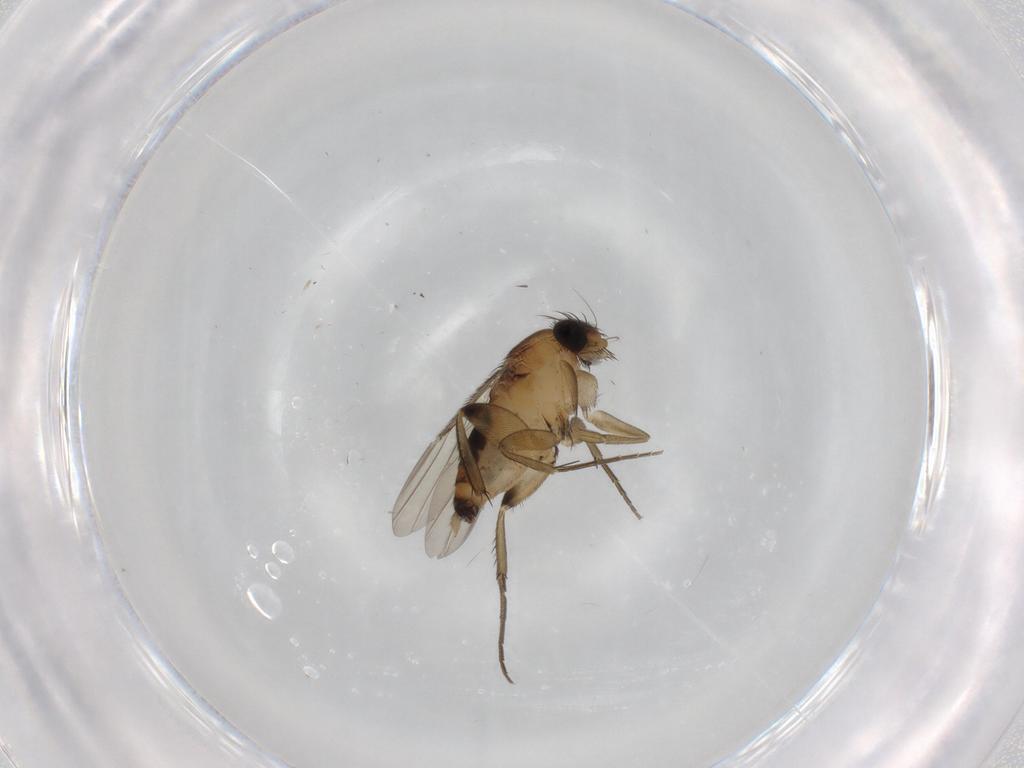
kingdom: Animalia
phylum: Arthropoda
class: Insecta
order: Diptera
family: Phoridae
